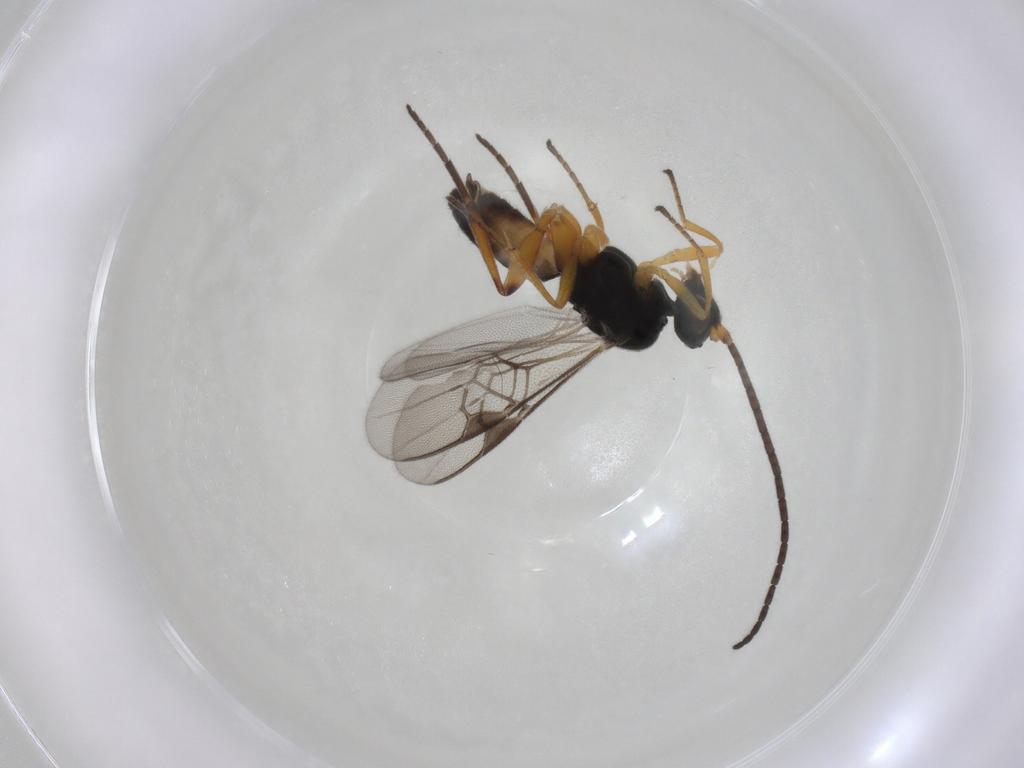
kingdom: Animalia
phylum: Arthropoda
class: Insecta
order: Hymenoptera
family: Braconidae
